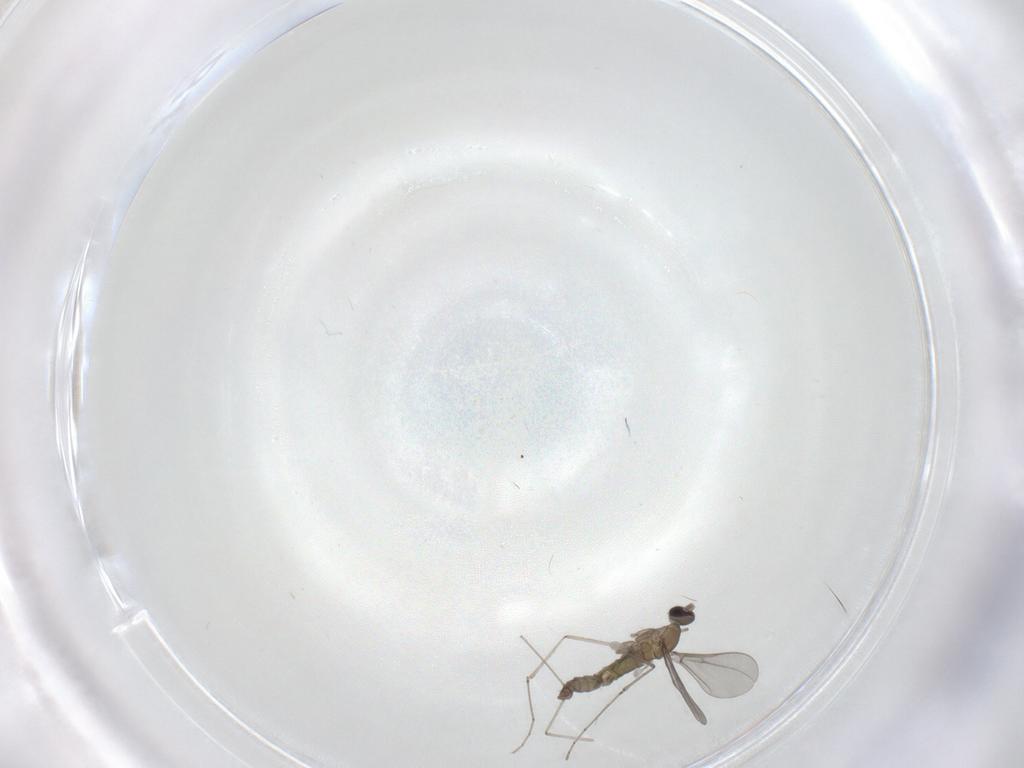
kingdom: Animalia
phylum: Arthropoda
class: Insecta
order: Diptera
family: Cecidomyiidae
